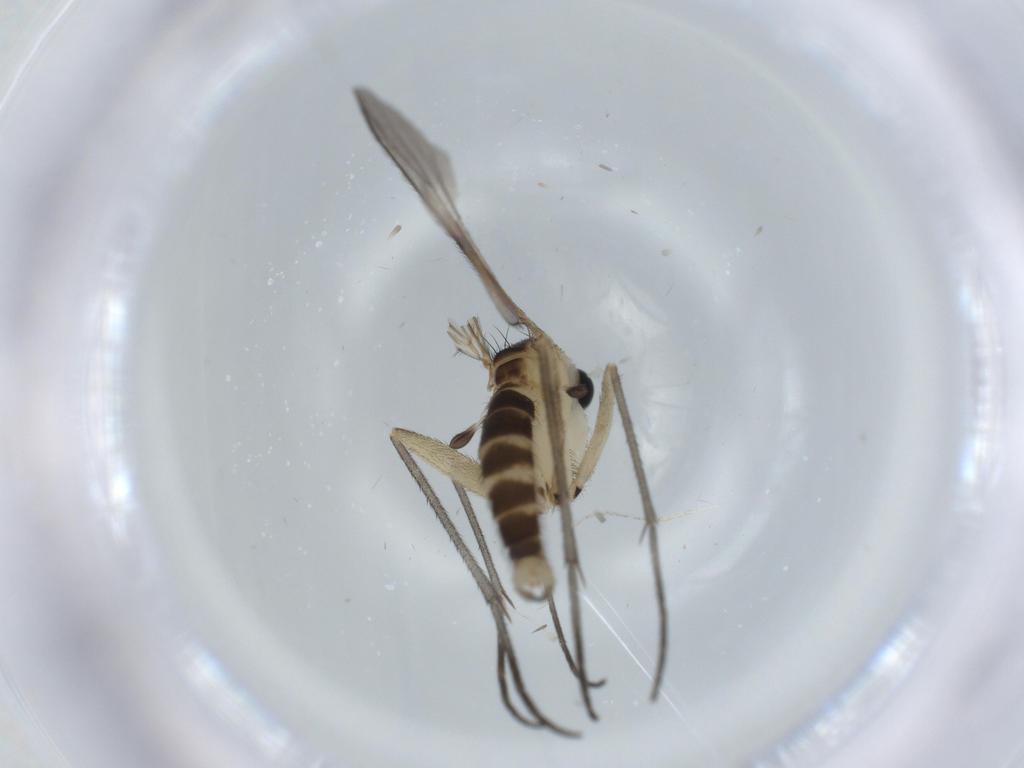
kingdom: Animalia
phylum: Arthropoda
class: Insecta
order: Diptera
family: Sciaridae
